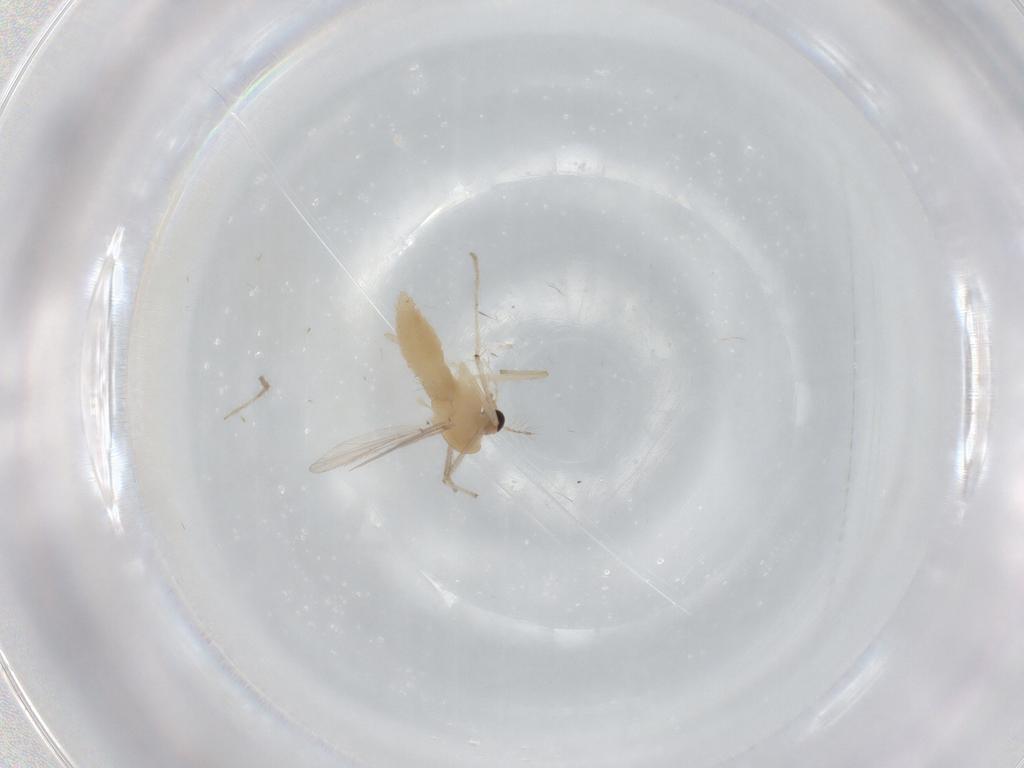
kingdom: Animalia
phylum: Arthropoda
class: Insecta
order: Diptera
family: Chironomidae
